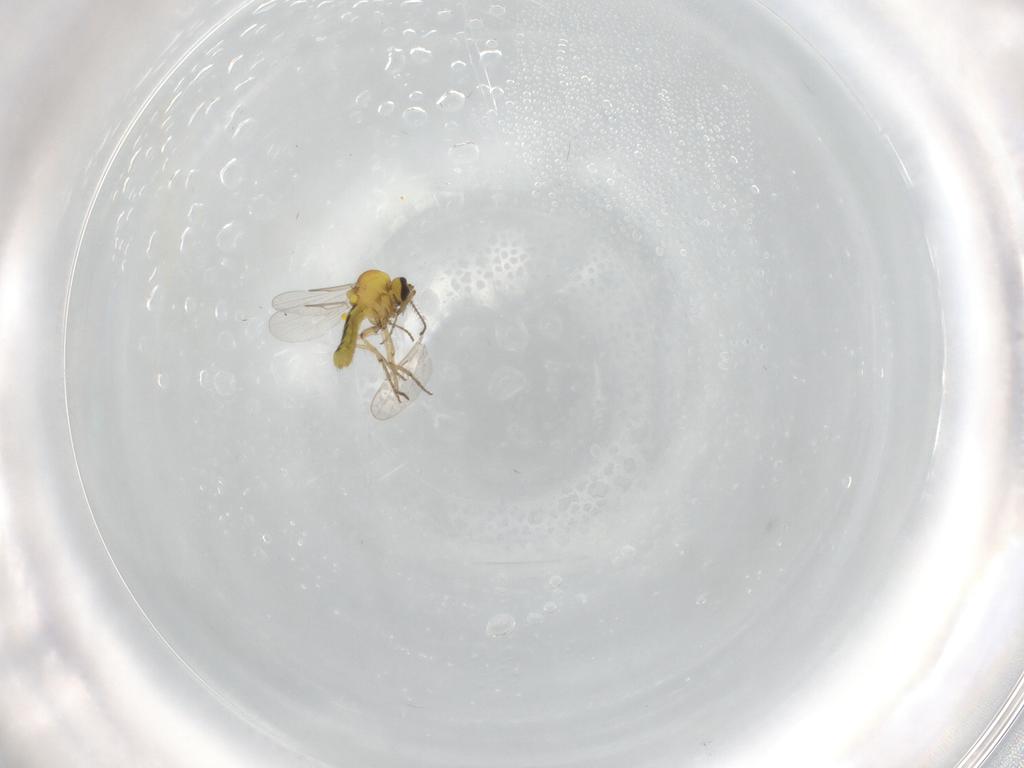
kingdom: Animalia
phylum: Arthropoda
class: Insecta
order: Diptera
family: Ceratopogonidae
